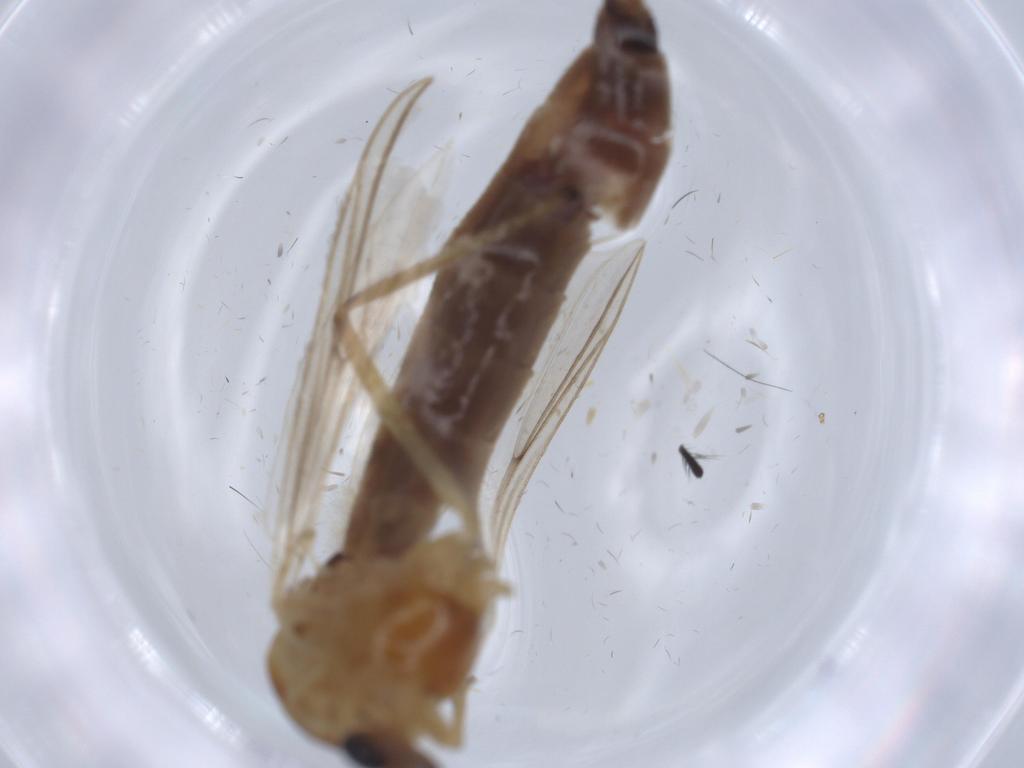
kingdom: Animalia
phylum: Arthropoda
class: Insecta
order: Diptera
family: Chironomidae
